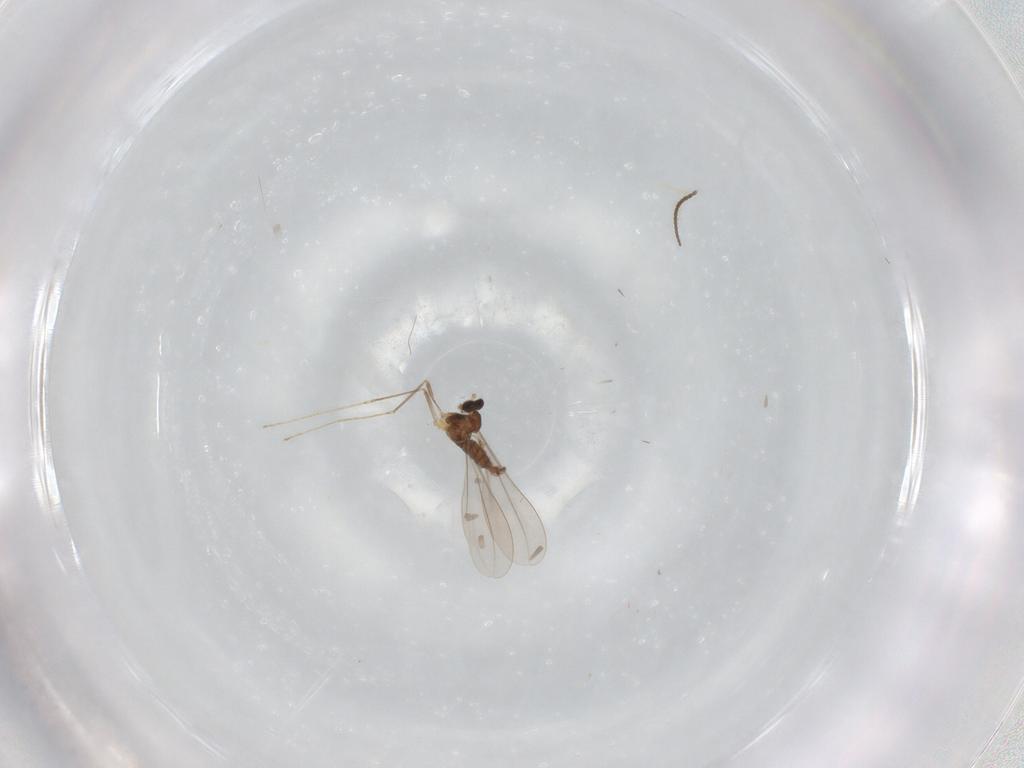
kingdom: Animalia
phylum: Arthropoda
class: Insecta
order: Diptera
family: Cecidomyiidae
